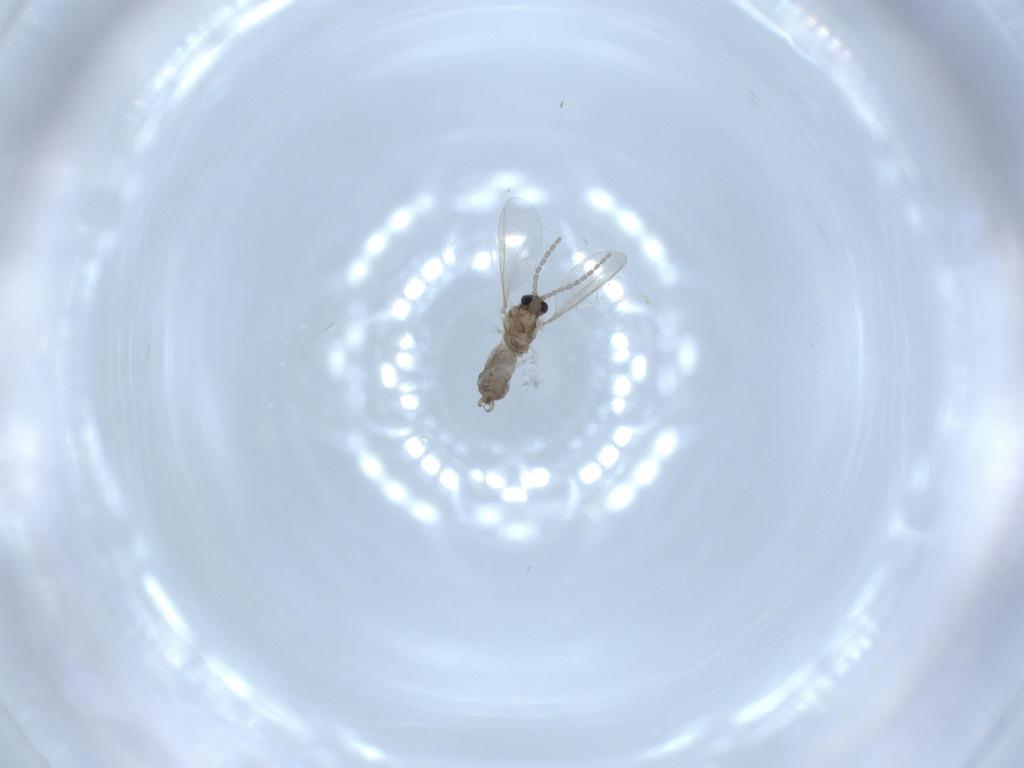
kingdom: Animalia
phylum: Arthropoda
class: Insecta
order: Diptera
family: Cecidomyiidae
